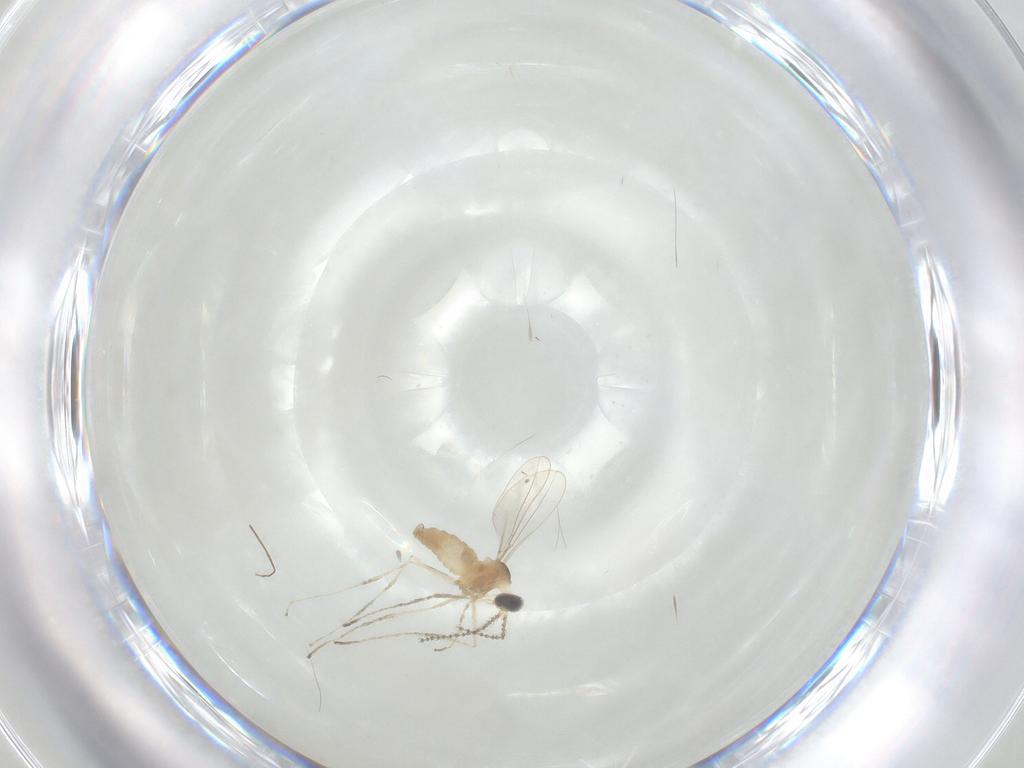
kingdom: Animalia
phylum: Arthropoda
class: Insecta
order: Diptera
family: Cecidomyiidae
